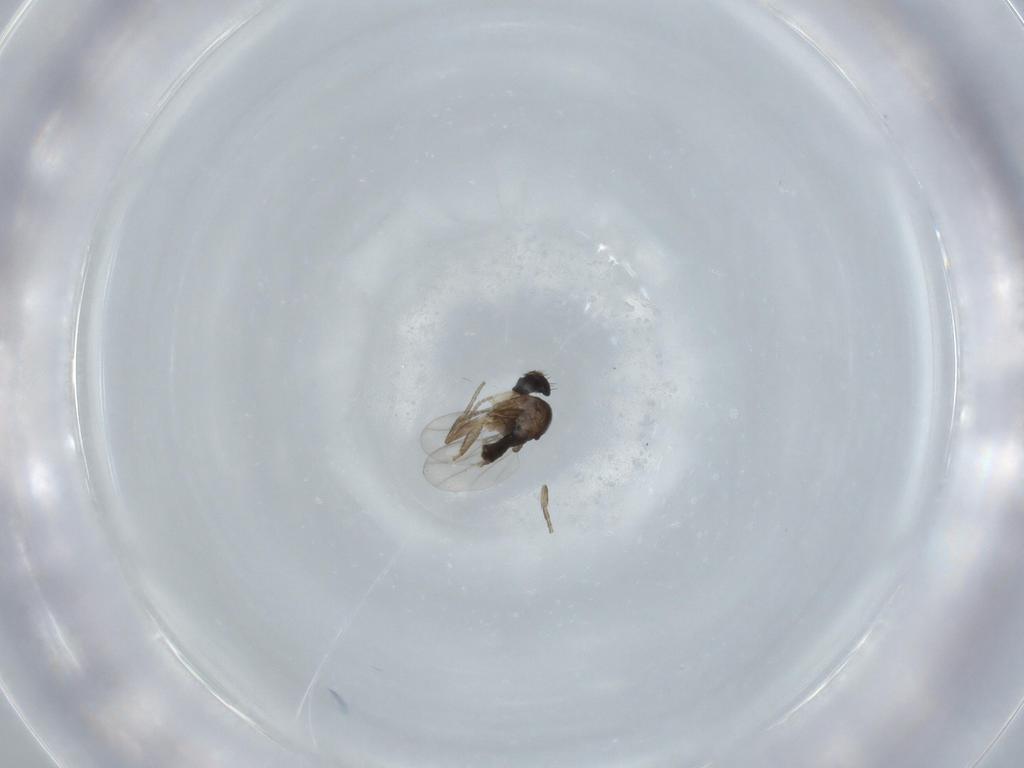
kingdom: Animalia
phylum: Arthropoda
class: Insecta
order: Diptera
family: Phoridae
